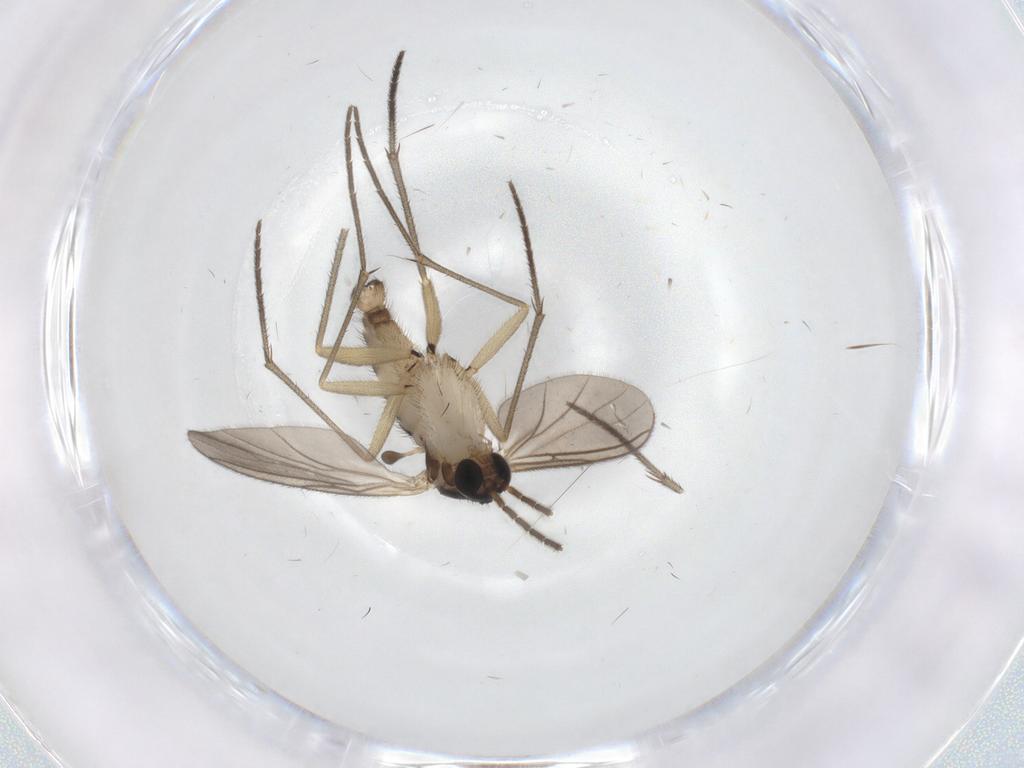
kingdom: Animalia
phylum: Arthropoda
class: Insecta
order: Diptera
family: Sciaridae
